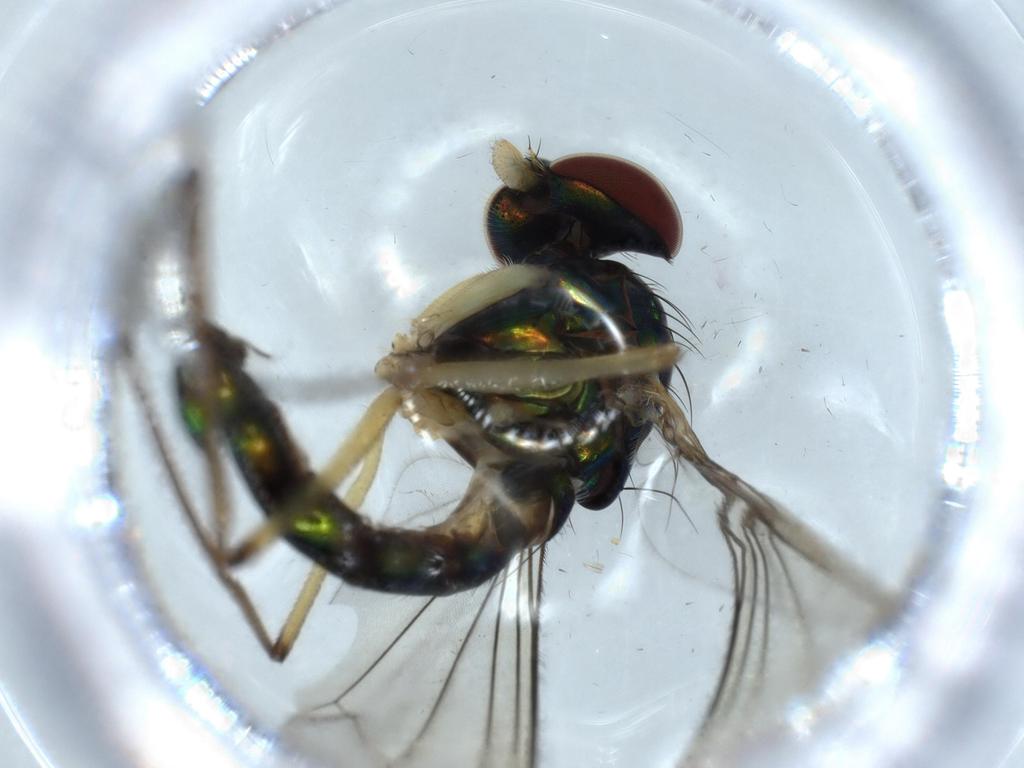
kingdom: Animalia
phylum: Arthropoda
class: Insecta
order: Diptera
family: Dolichopodidae
